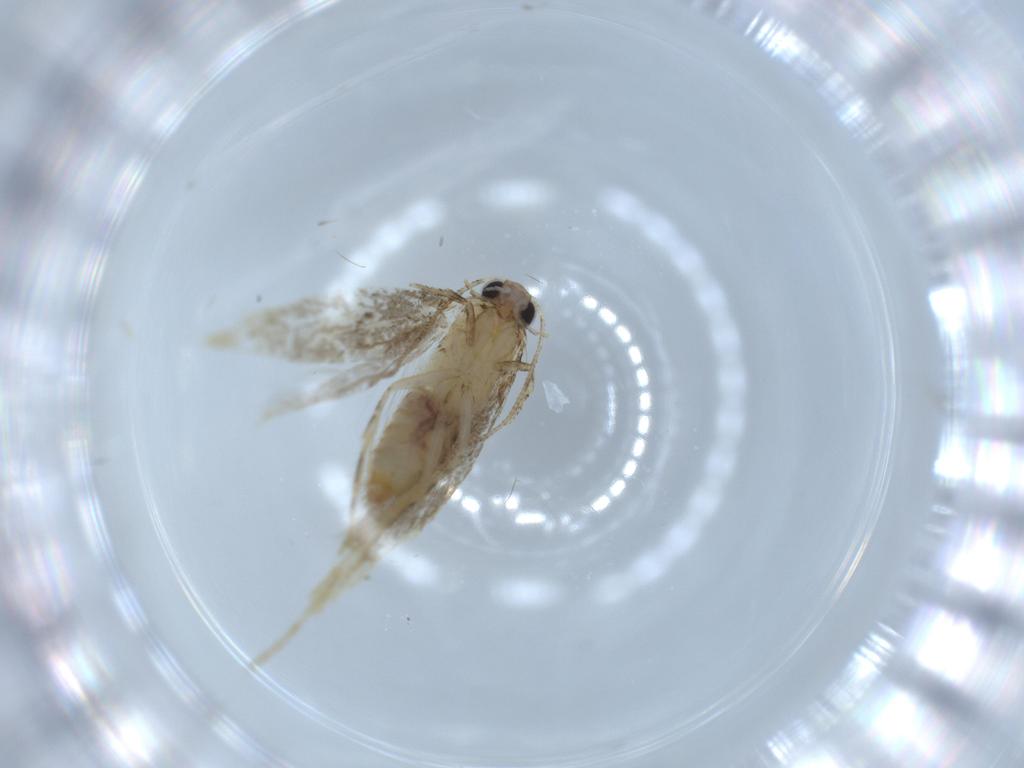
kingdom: Animalia
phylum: Arthropoda
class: Insecta
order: Lepidoptera
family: Tineidae
